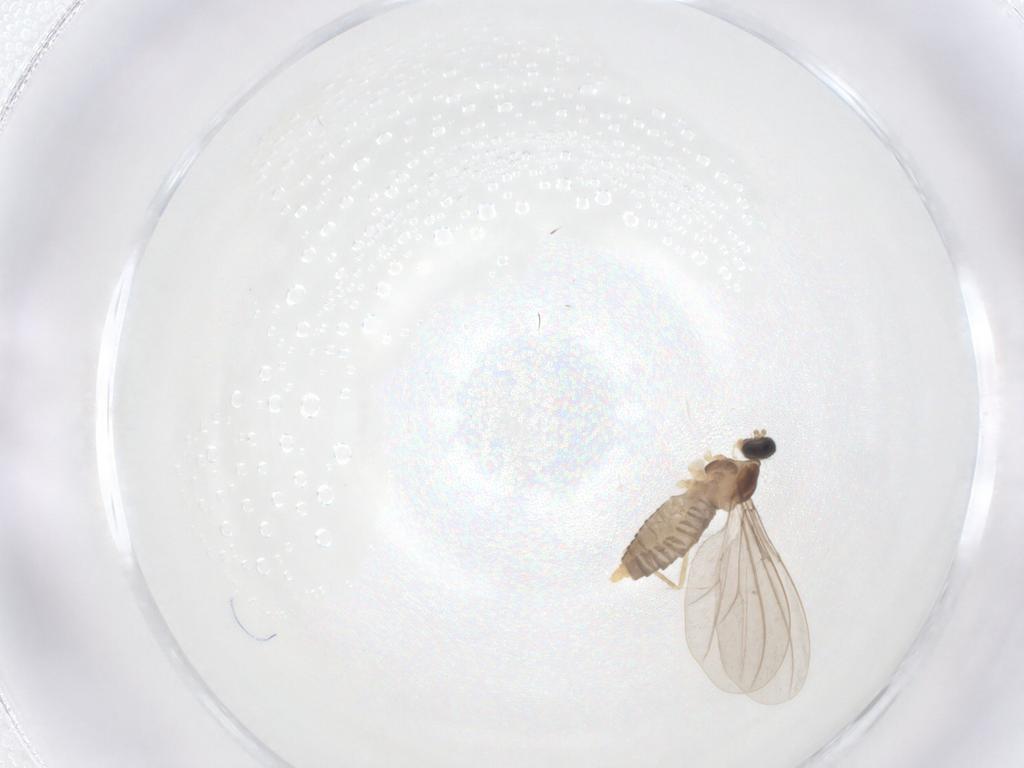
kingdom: Animalia
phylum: Arthropoda
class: Insecta
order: Diptera
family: Cecidomyiidae
